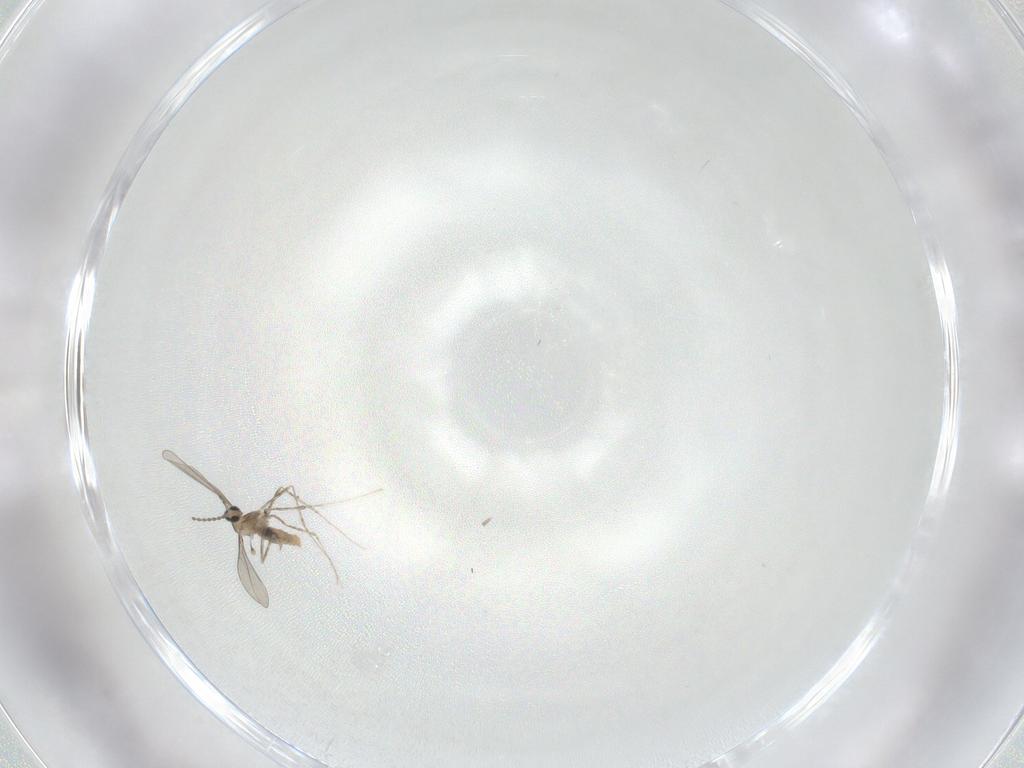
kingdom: Animalia
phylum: Arthropoda
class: Insecta
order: Diptera
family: Cecidomyiidae
